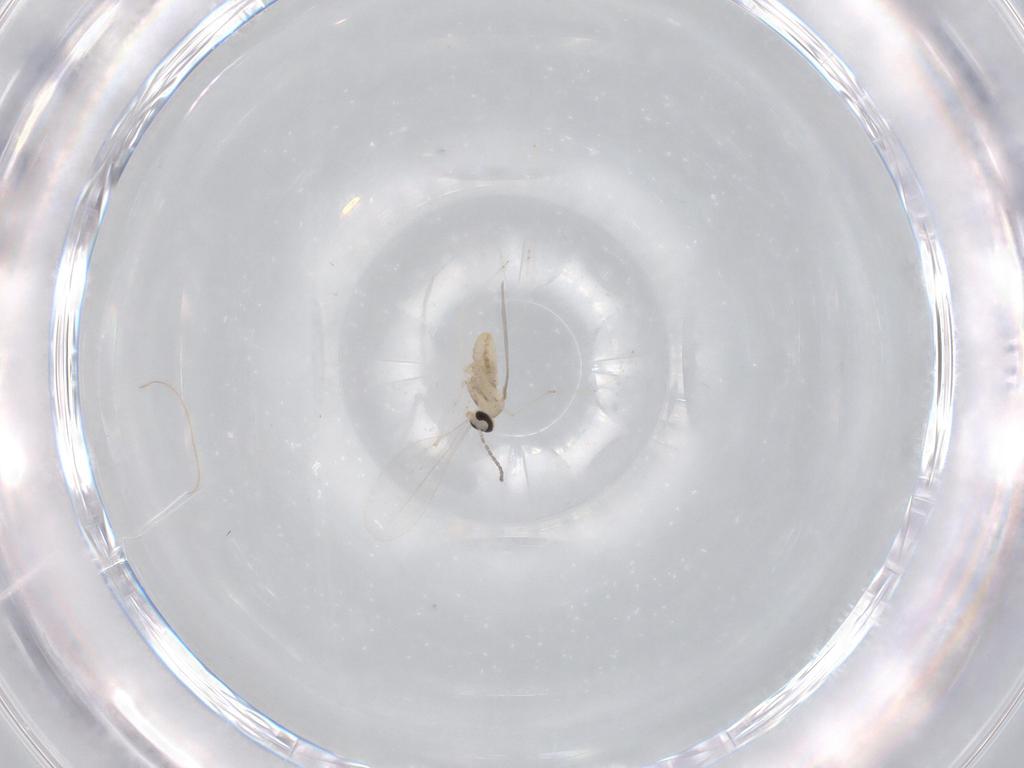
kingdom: Animalia
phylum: Arthropoda
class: Insecta
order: Diptera
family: Cecidomyiidae
